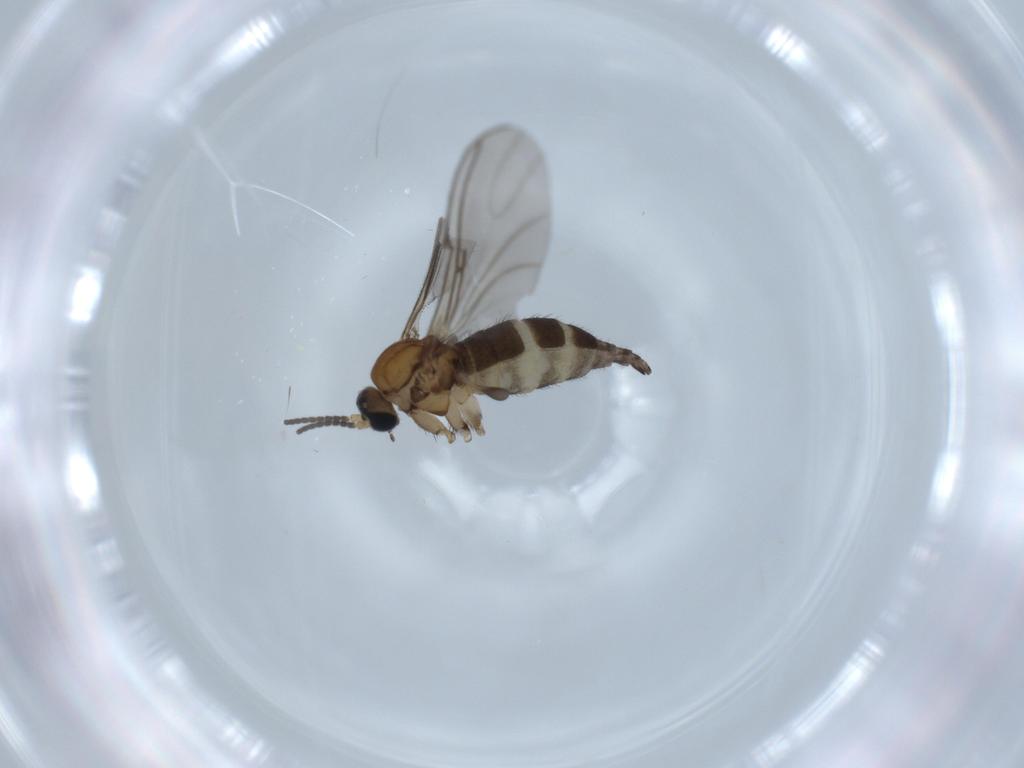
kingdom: Animalia
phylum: Arthropoda
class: Insecta
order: Diptera
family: Sciaridae
